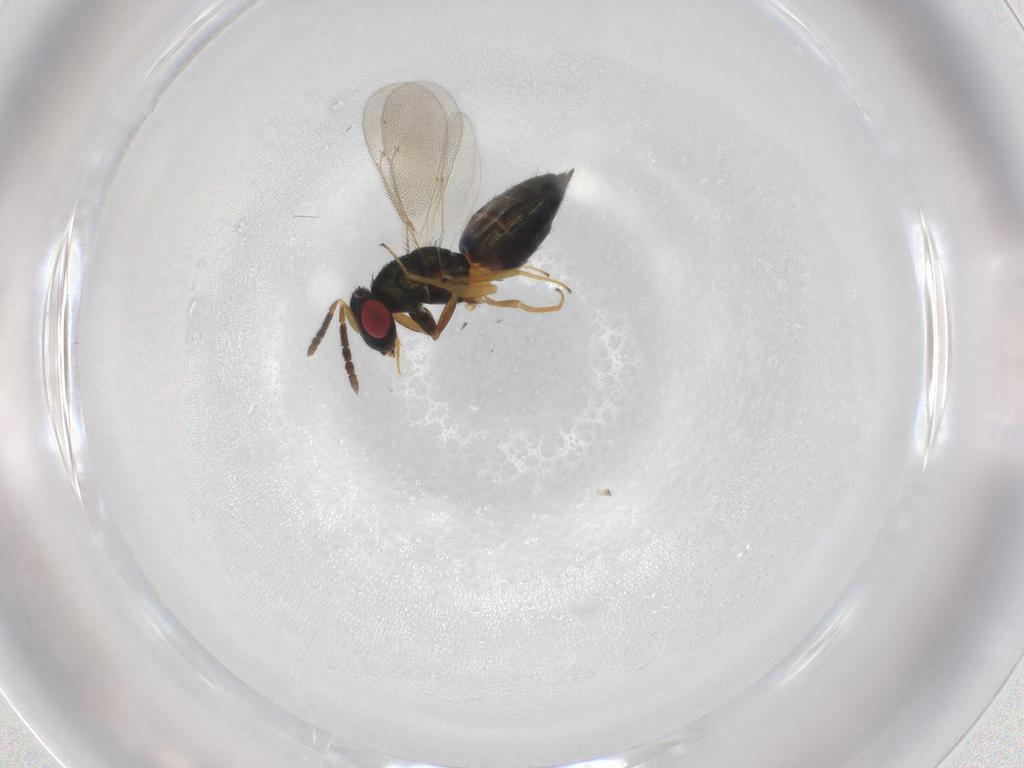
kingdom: Animalia
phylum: Arthropoda
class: Insecta
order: Hymenoptera
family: Eulophidae
